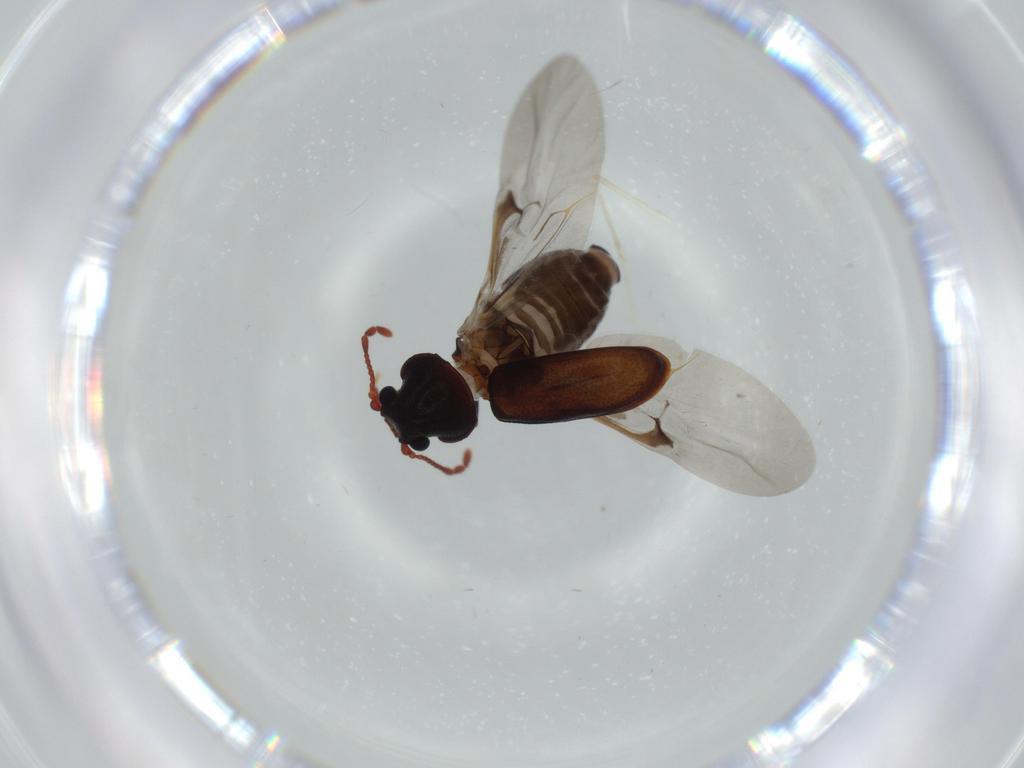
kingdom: Animalia
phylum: Arthropoda
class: Insecta
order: Coleoptera
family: Ptinidae
